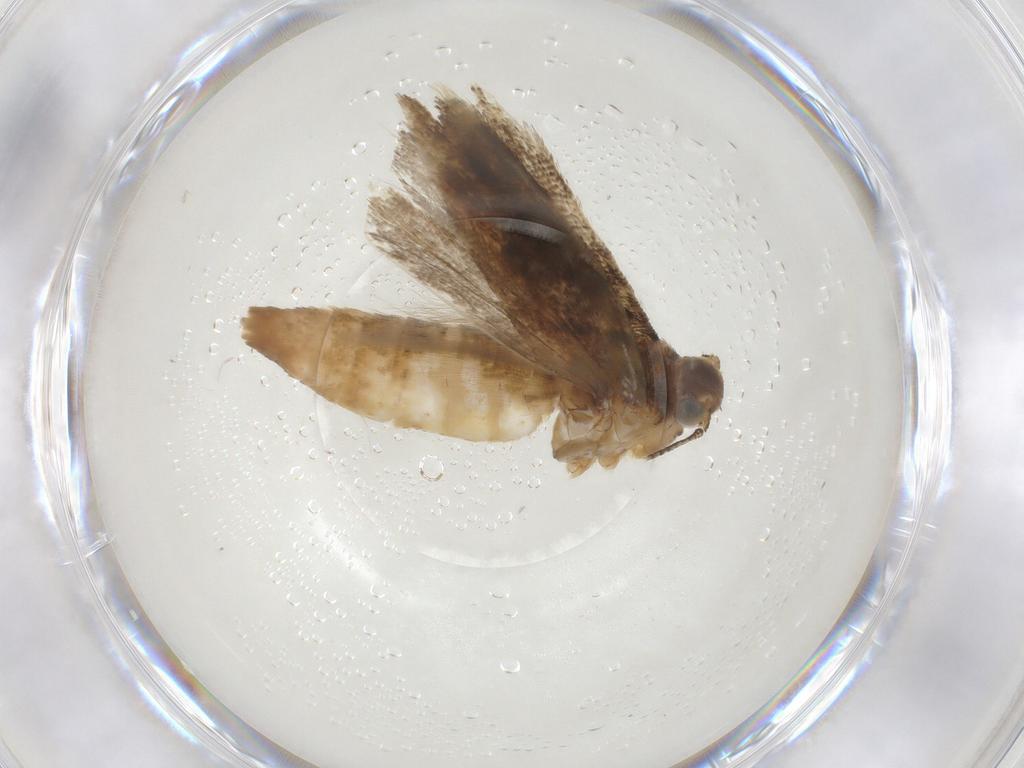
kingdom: Animalia
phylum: Arthropoda
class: Insecta
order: Lepidoptera
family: Gelechiidae
